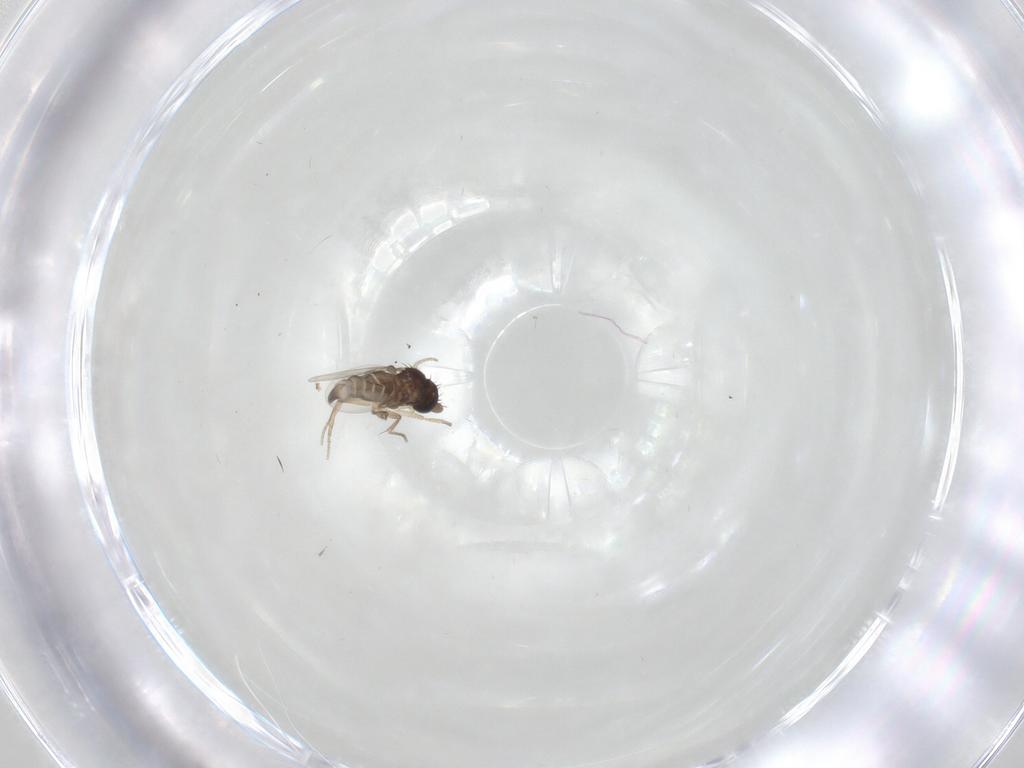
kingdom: Animalia
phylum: Arthropoda
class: Insecta
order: Diptera
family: Phoridae
